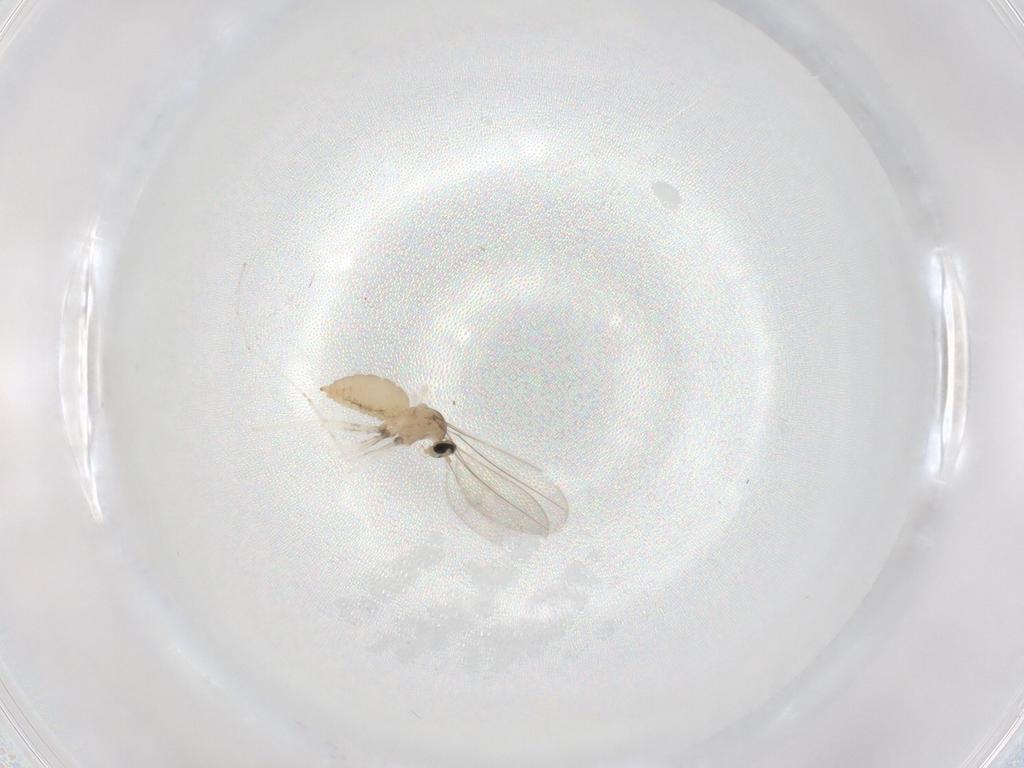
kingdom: Animalia
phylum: Arthropoda
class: Insecta
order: Diptera
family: Cecidomyiidae
